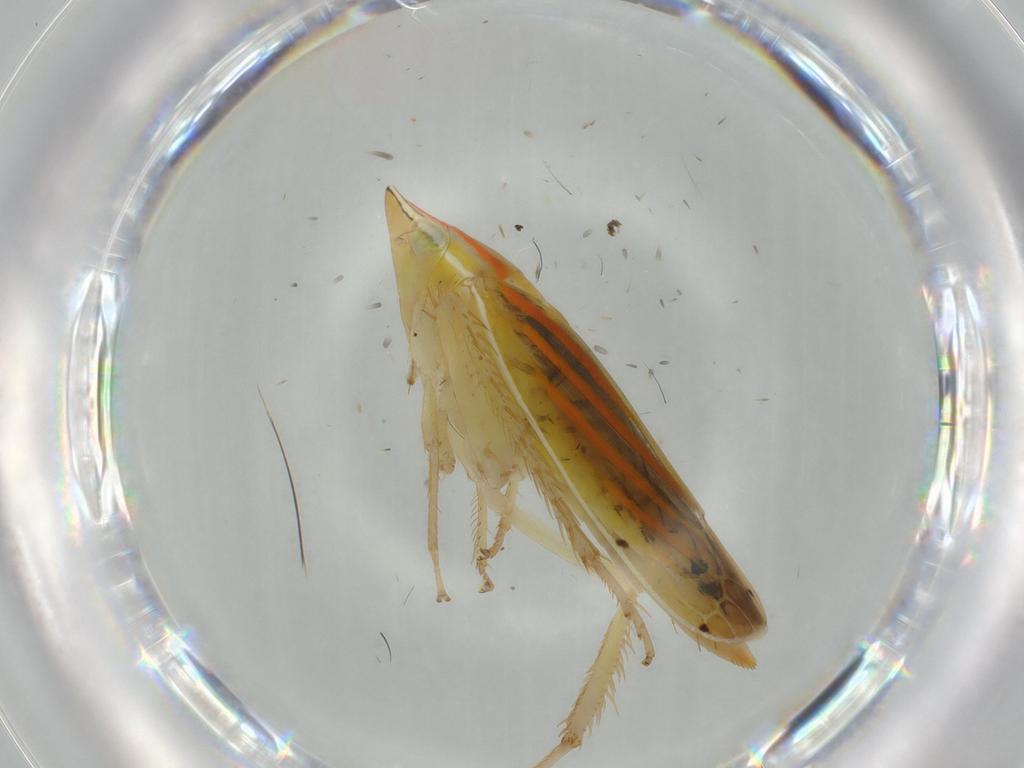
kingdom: Animalia
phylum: Arthropoda
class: Insecta
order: Hemiptera
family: Cicadellidae
